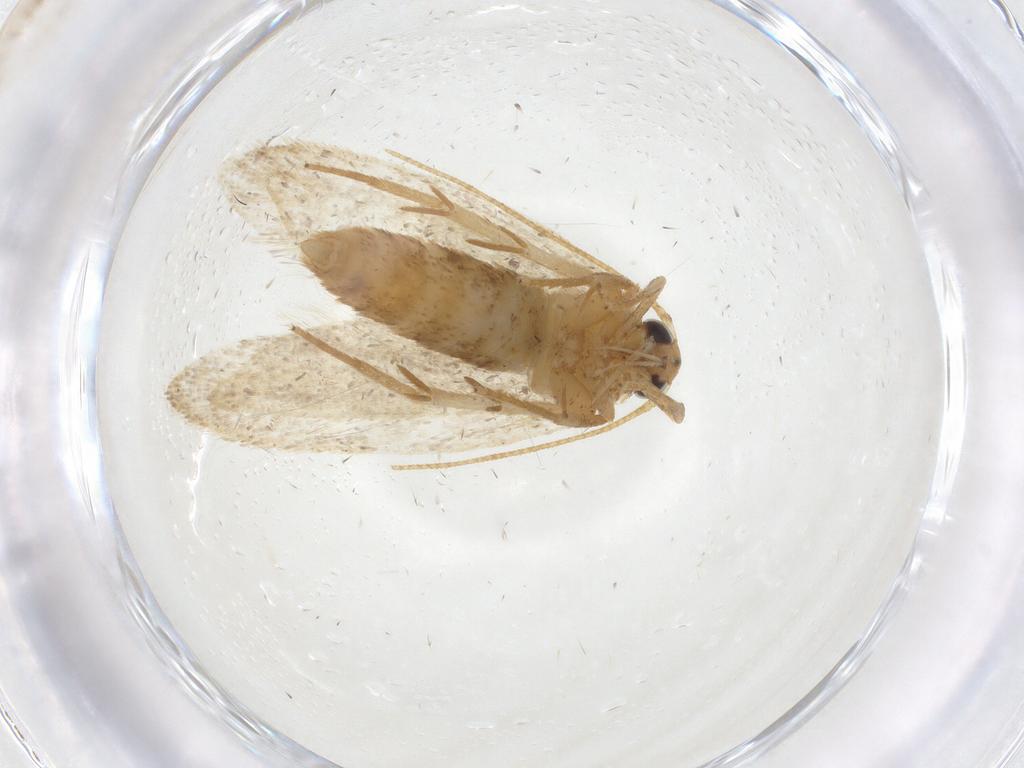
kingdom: Animalia
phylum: Arthropoda
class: Insecta
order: Lepidoptera
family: Oecophoridae
